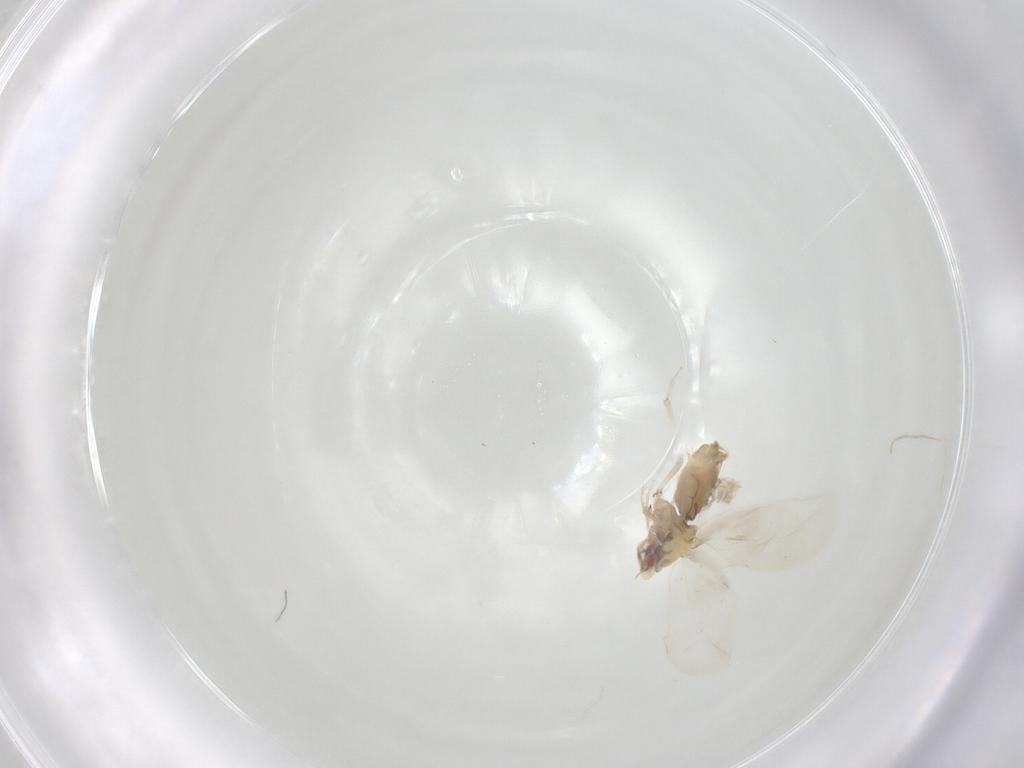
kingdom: Animalia
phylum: Arthropoda
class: Insecta
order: Hemiptera
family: Aleyrodidae
